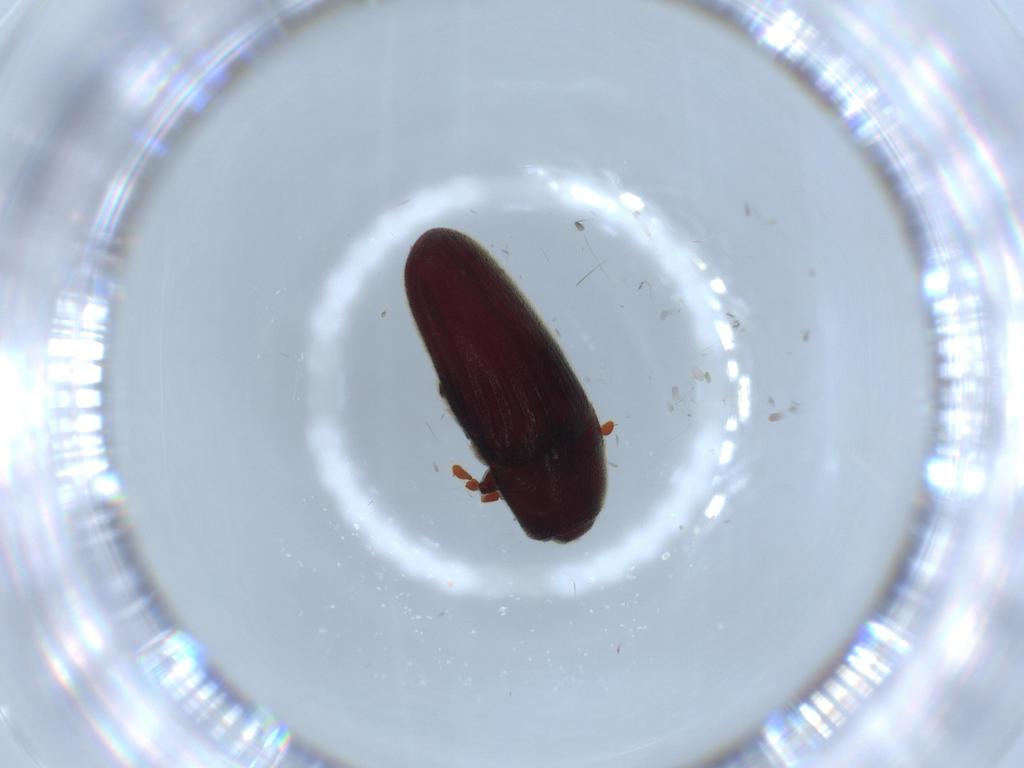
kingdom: Animalia
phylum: Arthropoda
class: Insecta
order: Coleoptera
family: Throscidae
